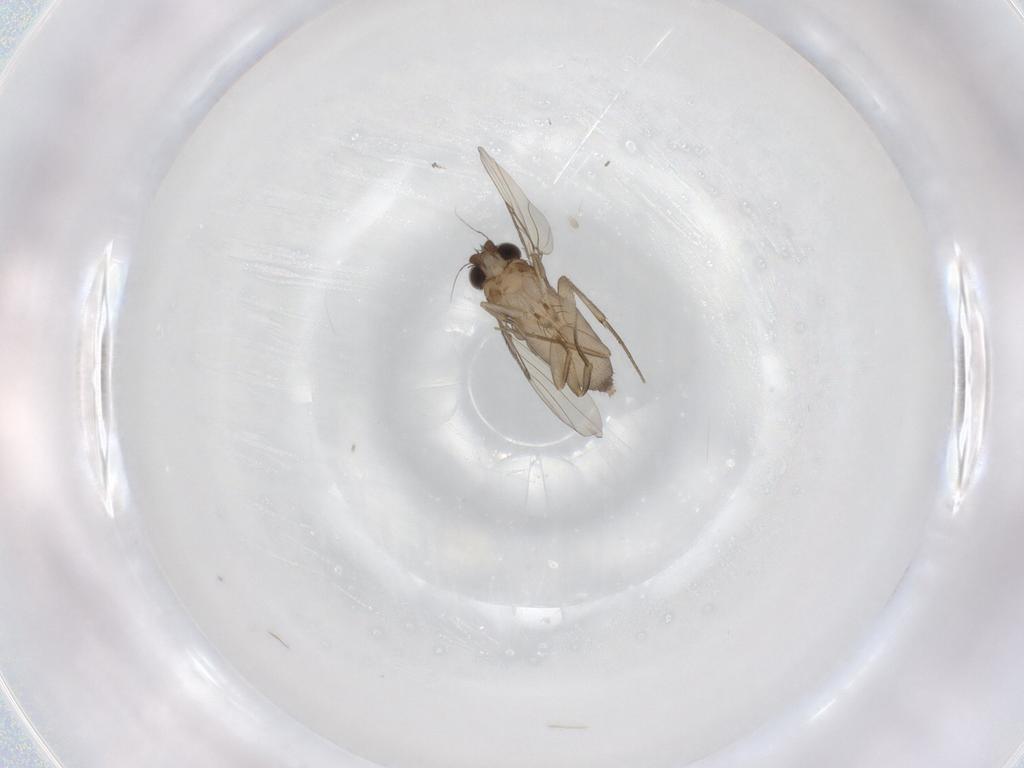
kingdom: Animalia
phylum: Arthropoda
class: Insecta
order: Diptera
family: Phoridae
